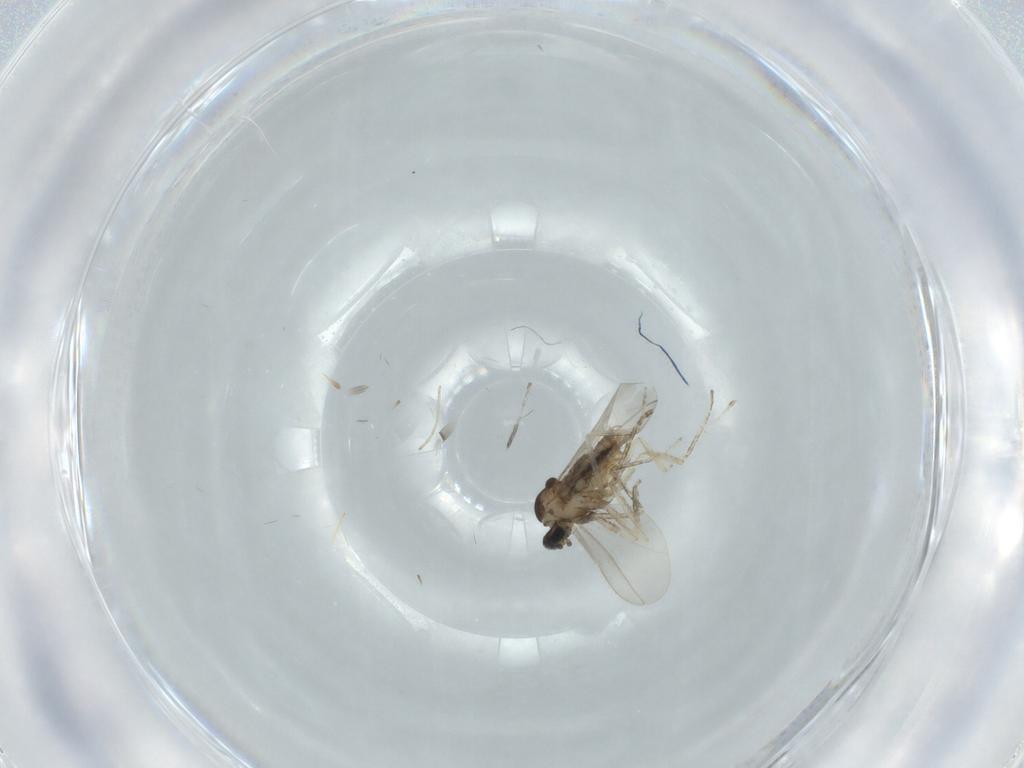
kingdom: Animalia
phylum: Arthropoda
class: Insecta
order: Diptera
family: Cecidomyiidae
